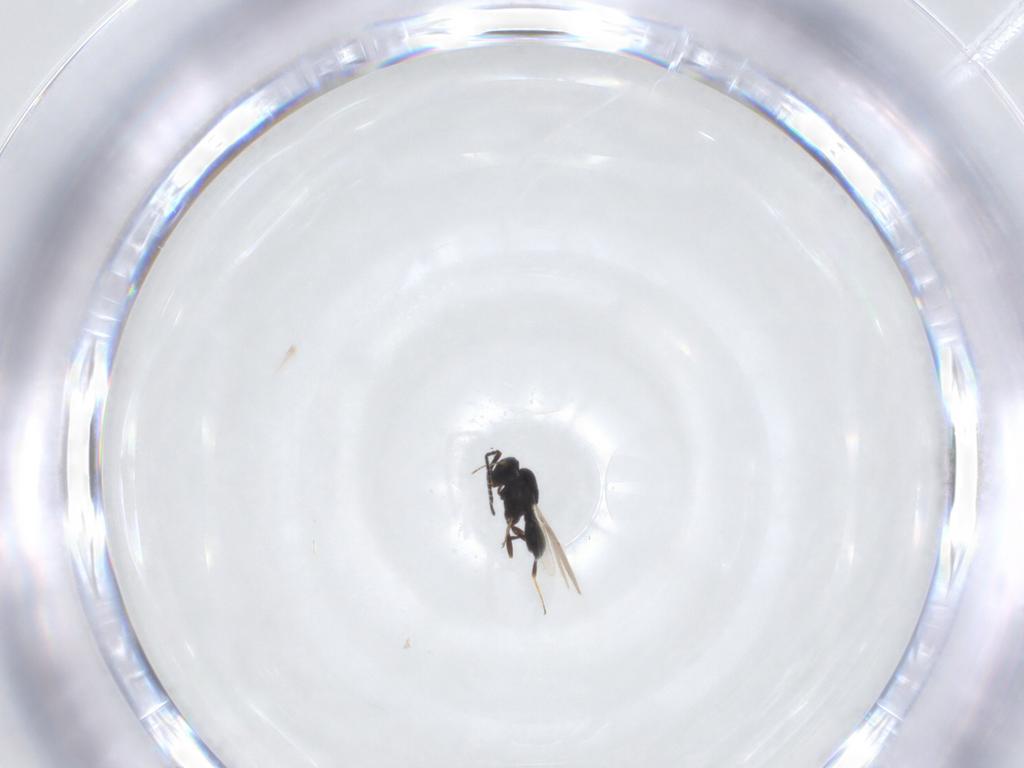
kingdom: Animalia
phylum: Arthropoda
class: Insecta
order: Hymenoptera
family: Scelionidae
